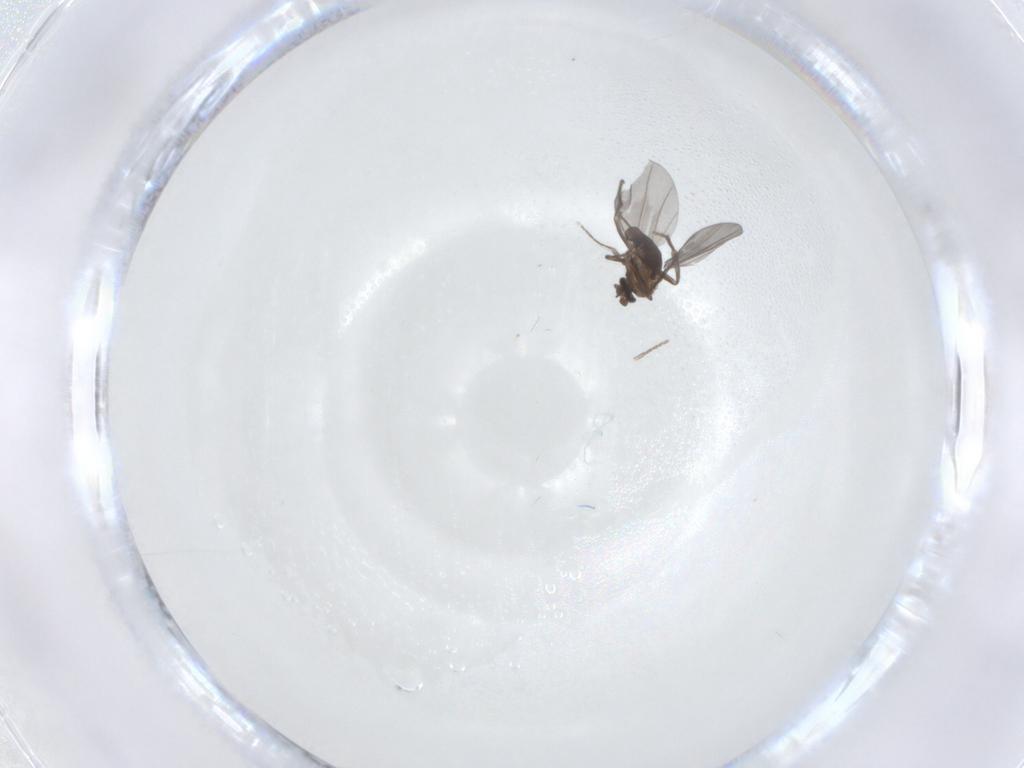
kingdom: Animalia
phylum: Arthropoda
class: Insecta
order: Diptera
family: Phoridae
